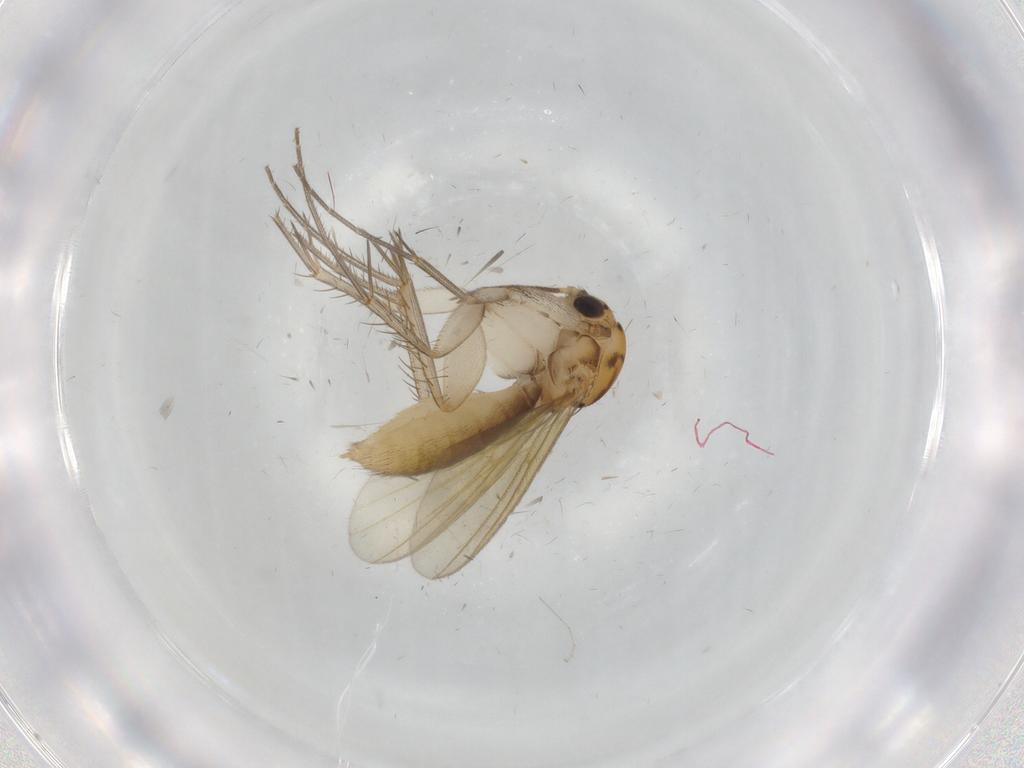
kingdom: Animalia
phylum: Arthropoda
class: Insecta
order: Diptera
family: Mycetophilidae
